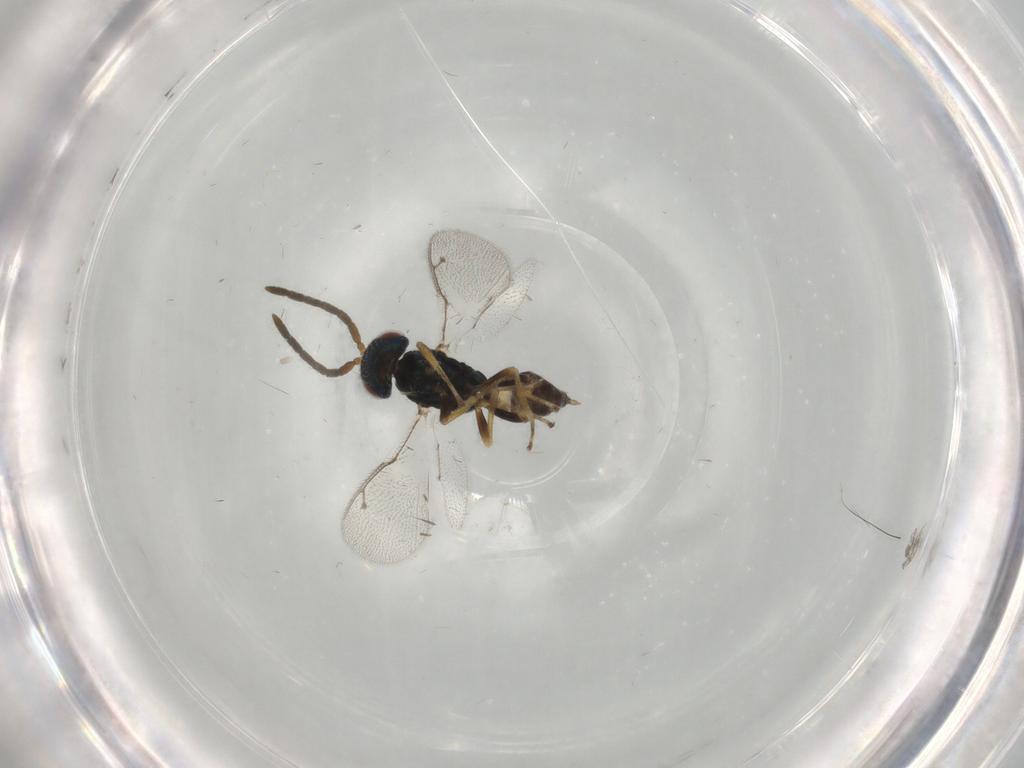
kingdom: Animalia
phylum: Arthropoda
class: Insecta
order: Hymenoptera
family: Pteromalidae
